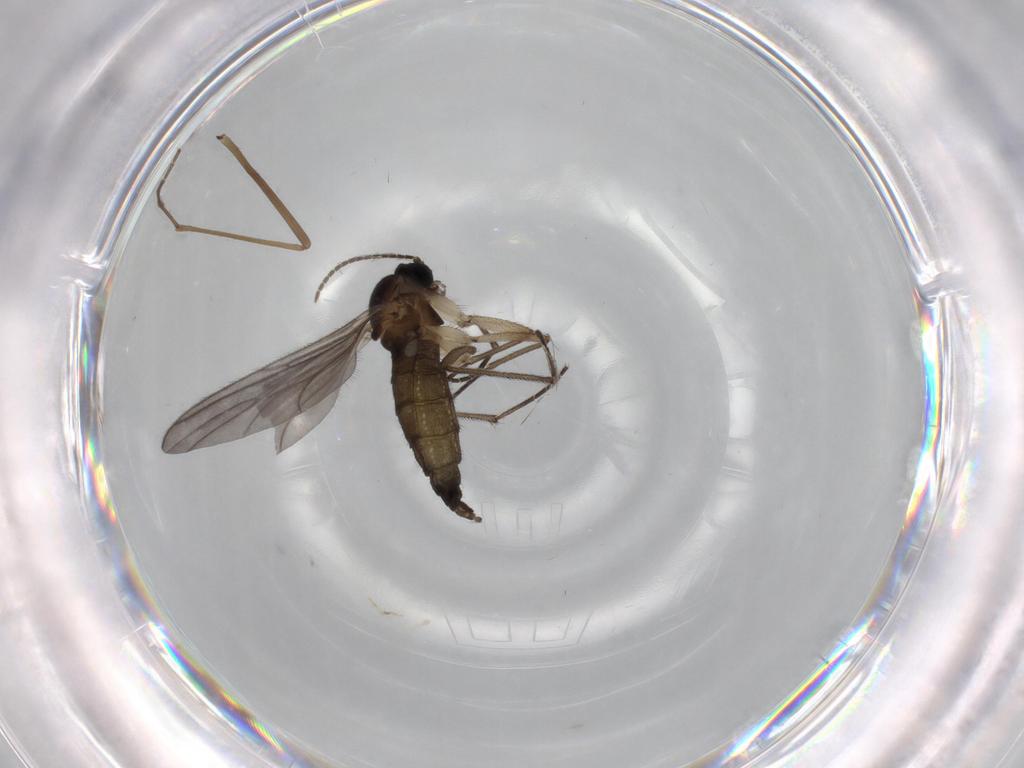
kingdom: Animalia
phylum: Arthropoda
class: Insecta
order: Diptera
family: Sciaridae
